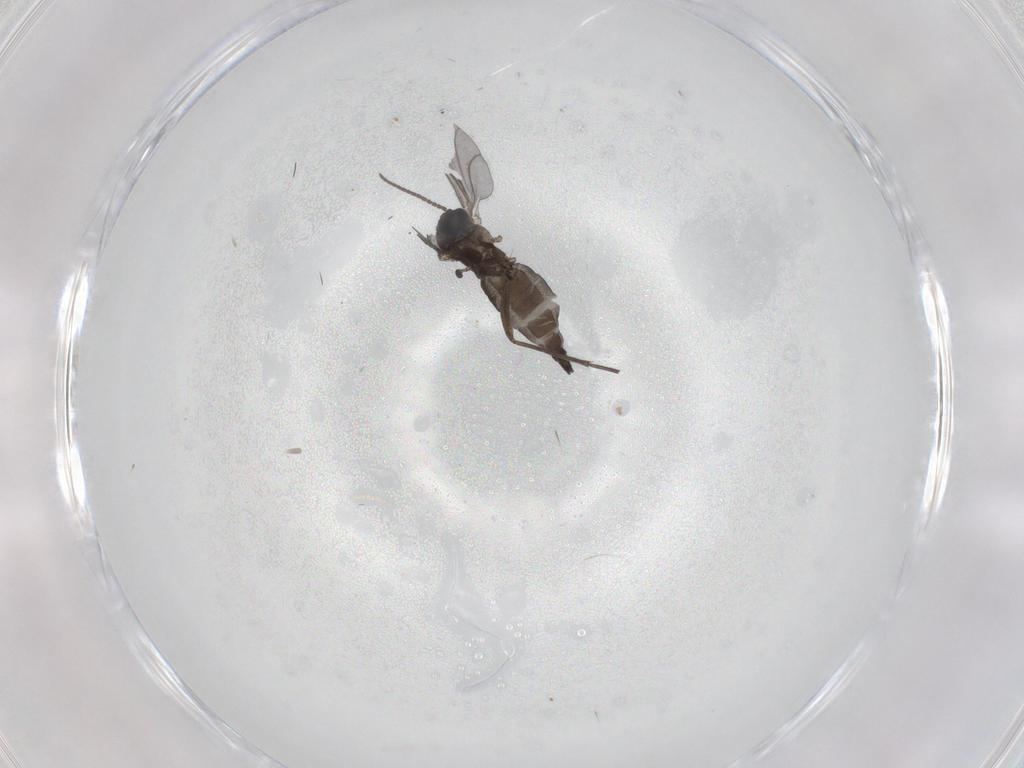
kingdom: Animalia
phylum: Arthropoda
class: Insecta
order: Diptera
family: Sciaridae
